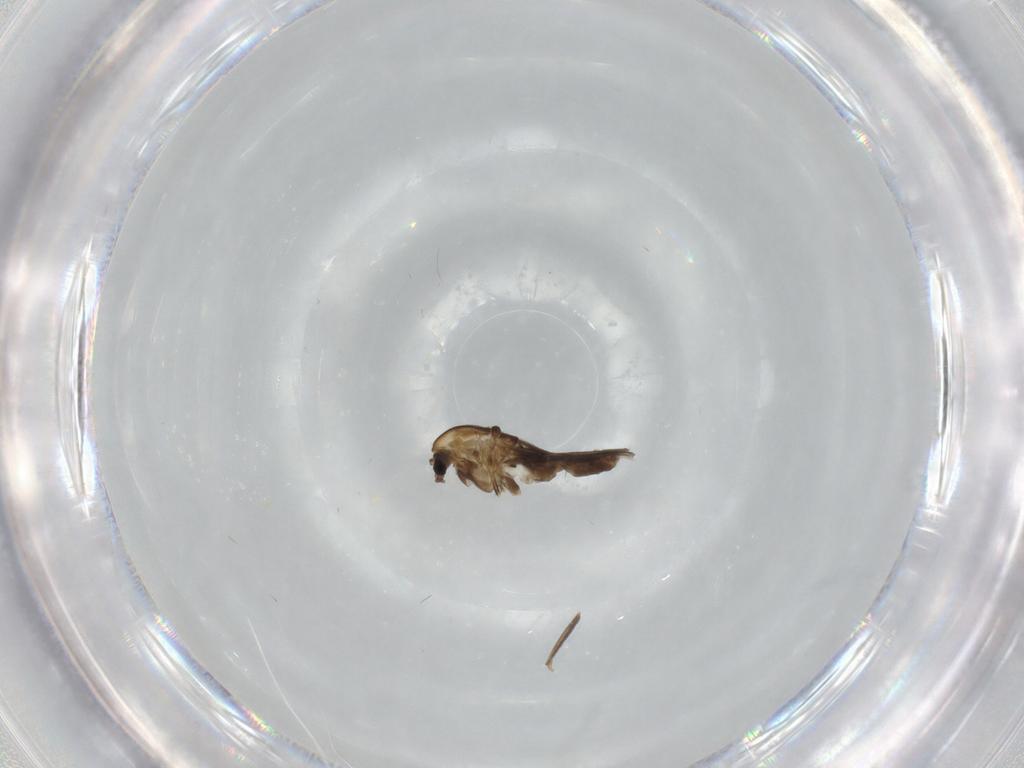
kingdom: Animalia
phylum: Arthropoda
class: Insecta
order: Diptera
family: Chironomidae
